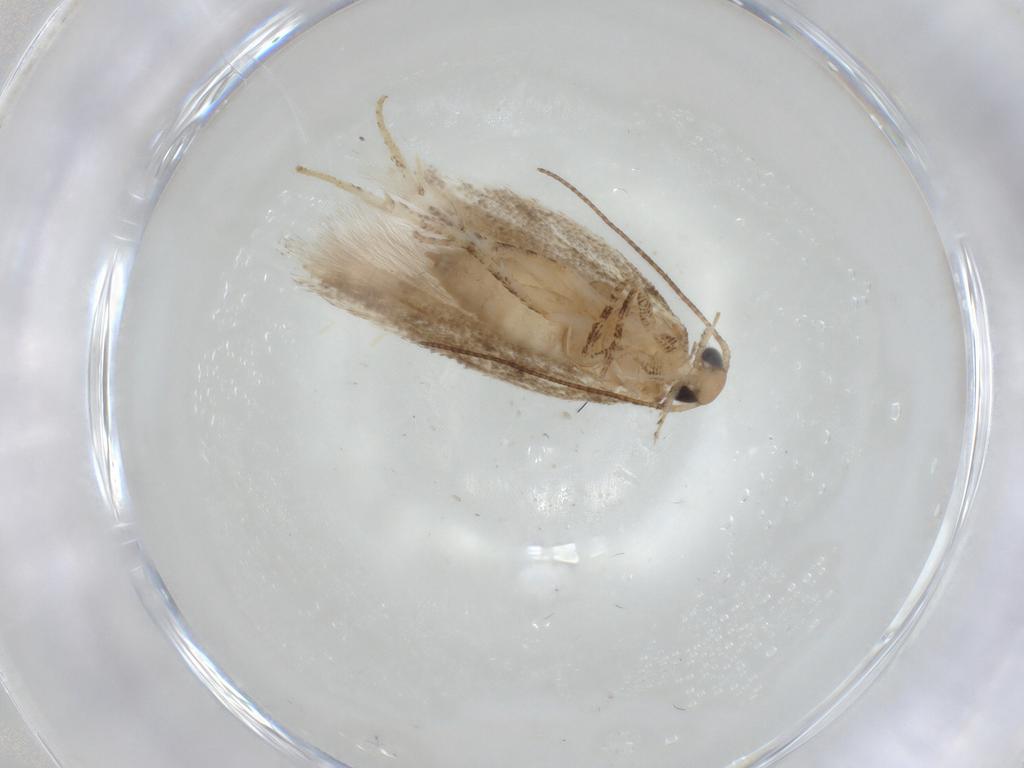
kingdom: Animalia
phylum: Arthropoda
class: Insecta
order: Lepidoptera
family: Gelechiidae
